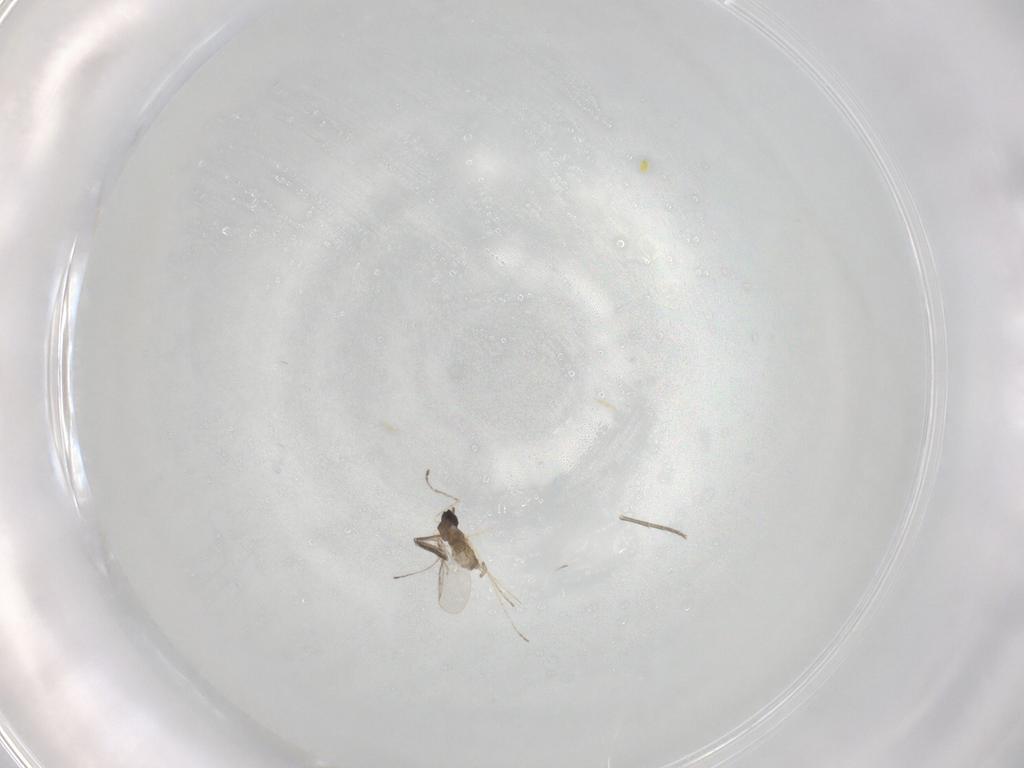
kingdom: Animalia
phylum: Arthropoda
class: Insecta
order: Diptera
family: Cecidomyiidae
